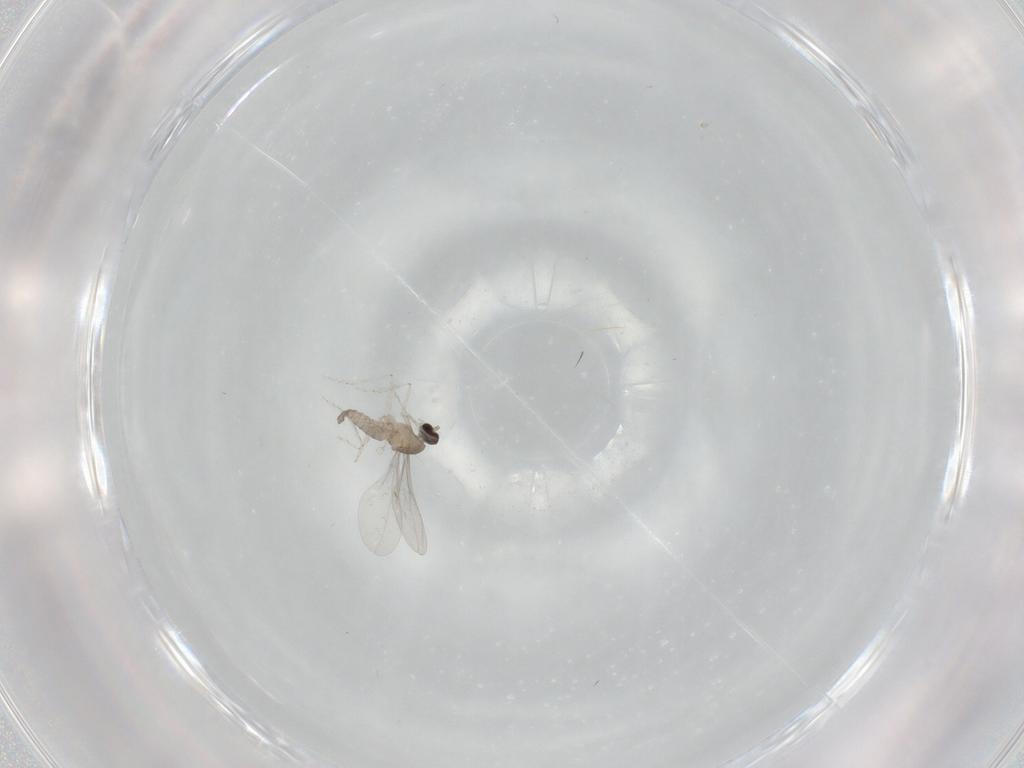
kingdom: Animalia
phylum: Arthropoda
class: Insecta
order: Diptera
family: Cecidomyiidae
